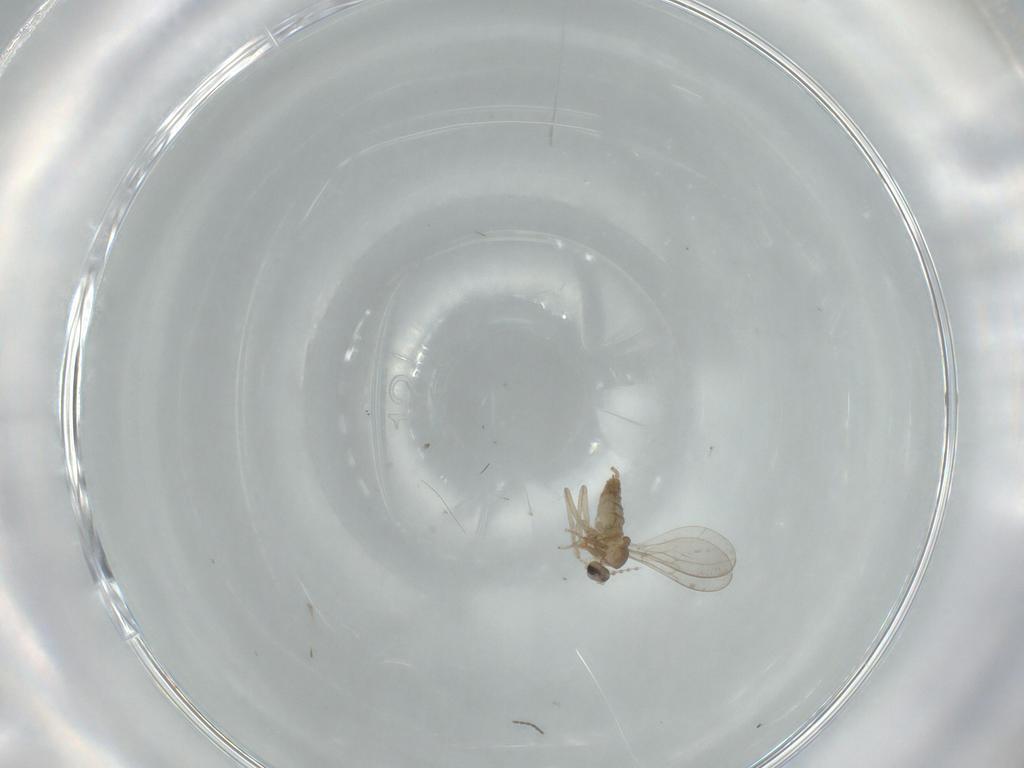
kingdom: Animalia
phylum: Arthropoda
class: Insecta
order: Diptera
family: Cecidomyiidae
